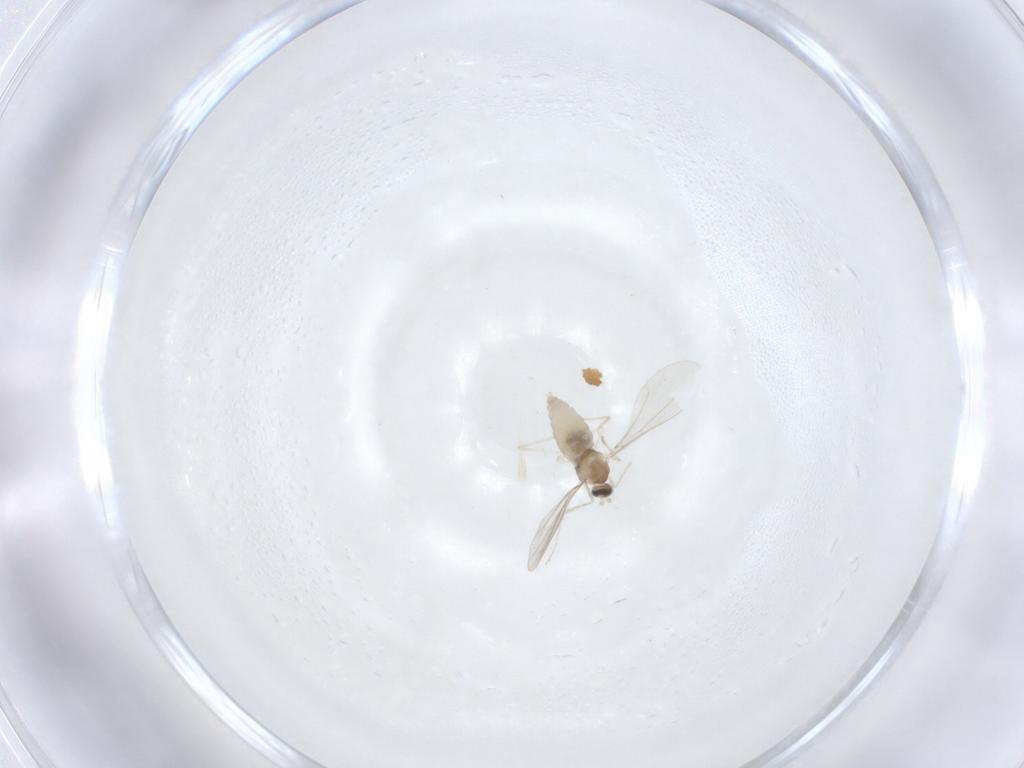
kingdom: Animalia
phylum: Arthropoda
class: Insecta
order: Diptera
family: Cecidomyiidae
